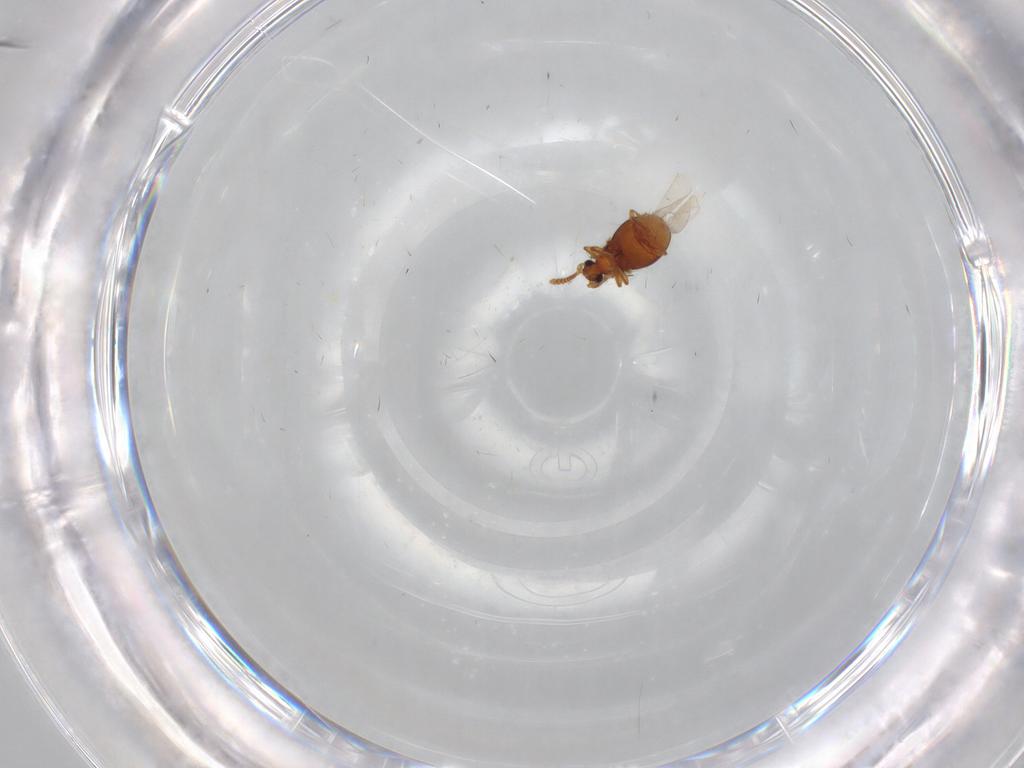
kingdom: Animalia
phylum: Arthropoda
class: Insecta
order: Coleoptera
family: Staphylinidae
